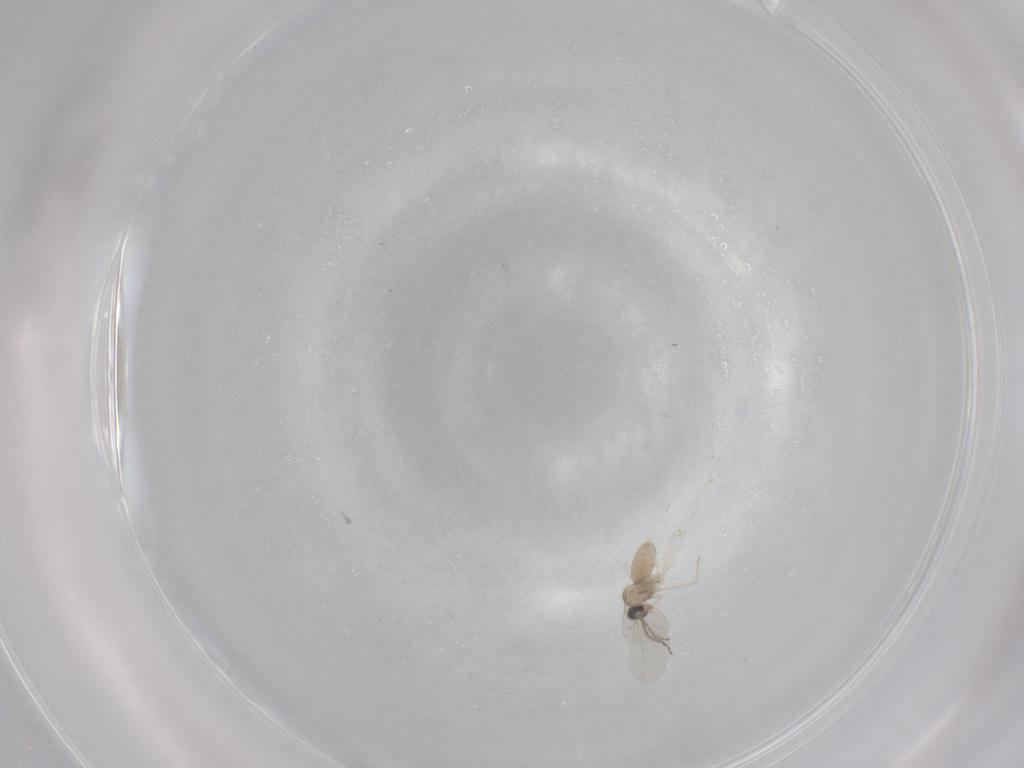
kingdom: Animalia
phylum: Arthropoda
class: Insecta
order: Diptera
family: Cecidomyiidae
